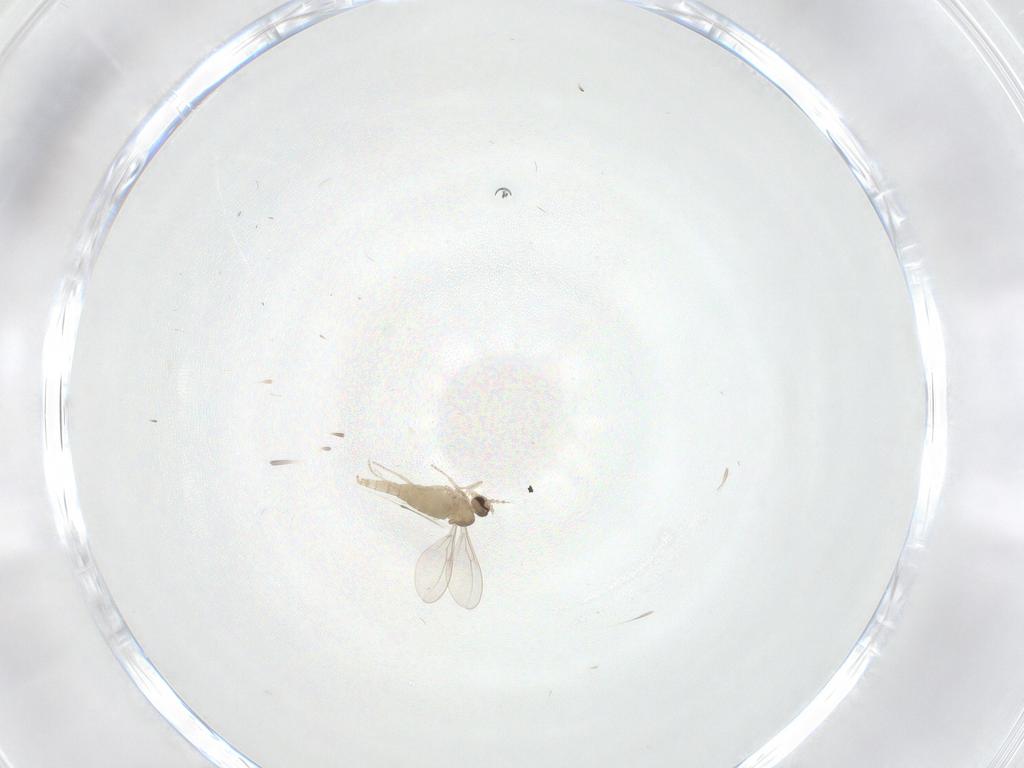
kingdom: Animalia
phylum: Arthropoda
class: Insecta
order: Diptera
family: Cecidomyiidae
